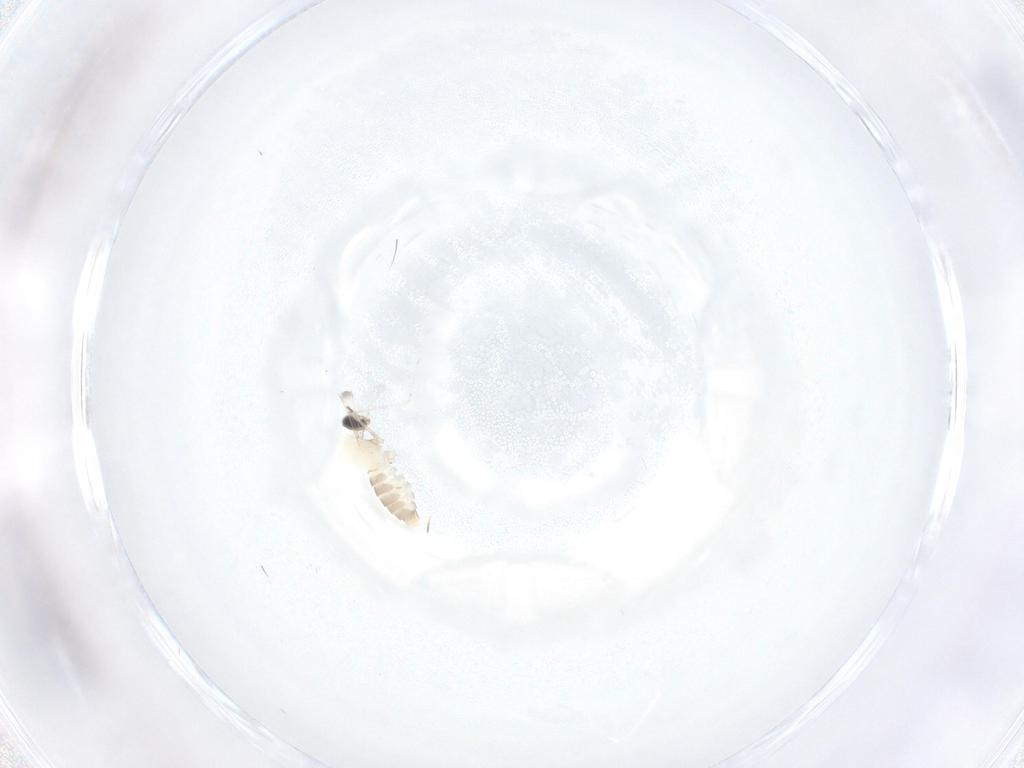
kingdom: Animalia
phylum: Arthropoda
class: Insecta
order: Diptera
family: Cecidomyiidae
